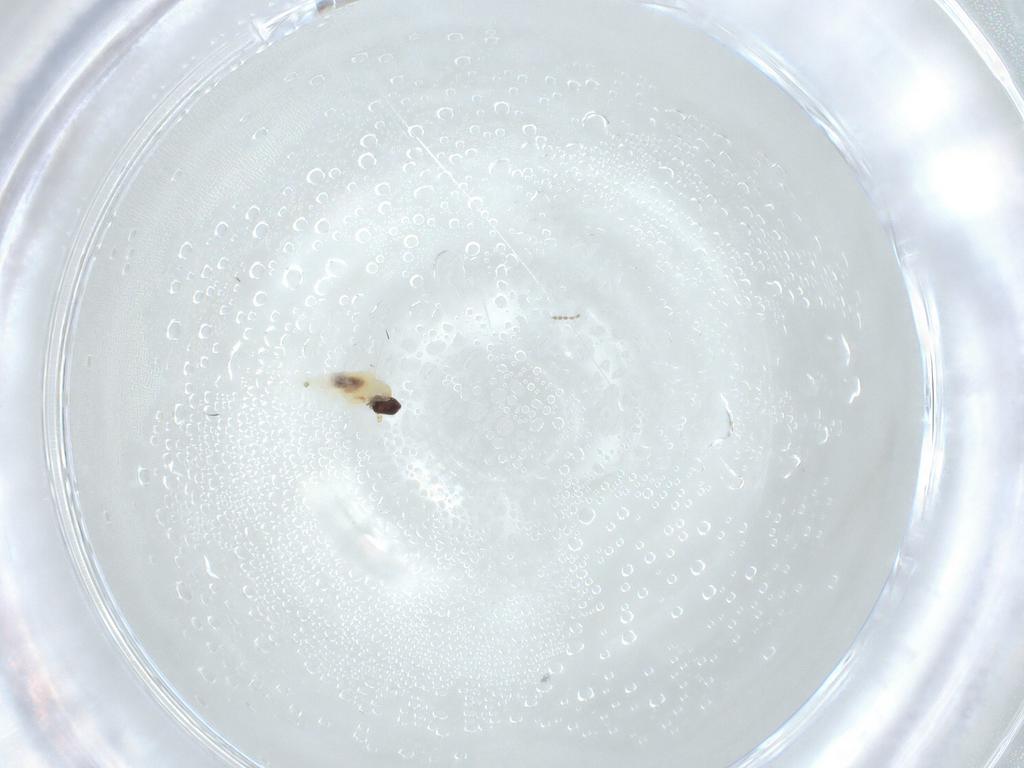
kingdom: Animalia
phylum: Arthropoda
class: Insecta
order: Diptera
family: Cecidomyiidae
